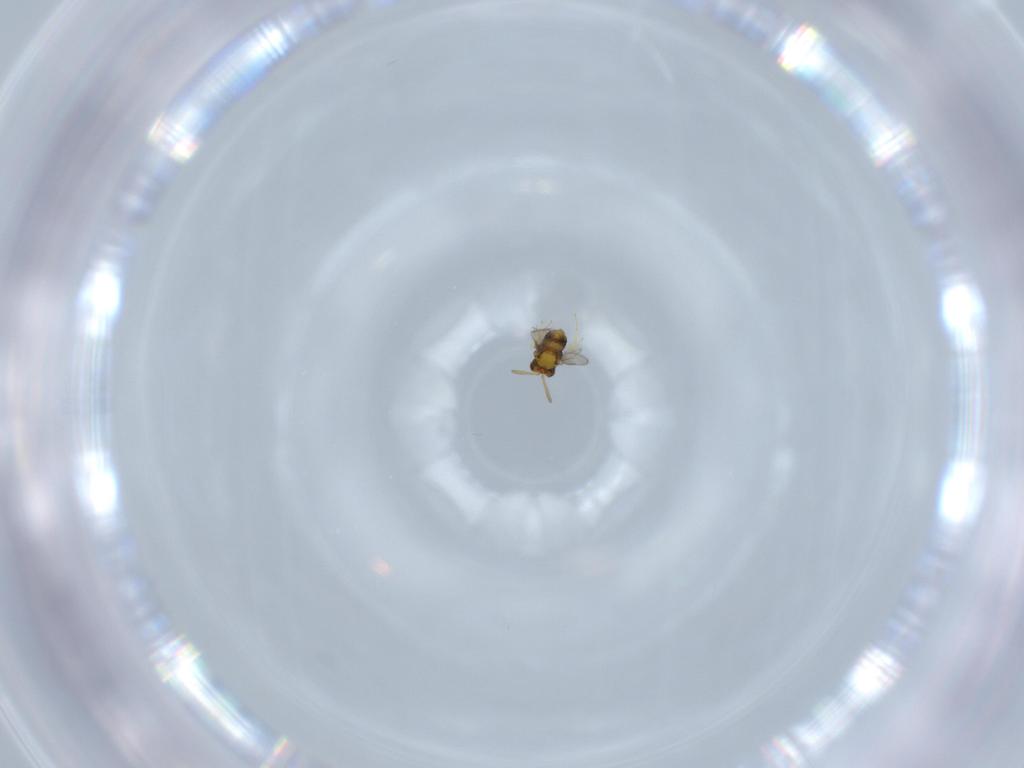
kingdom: Animalia
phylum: Arthropoda
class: Insecta
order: Hymenoptera
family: Aphelinidae
